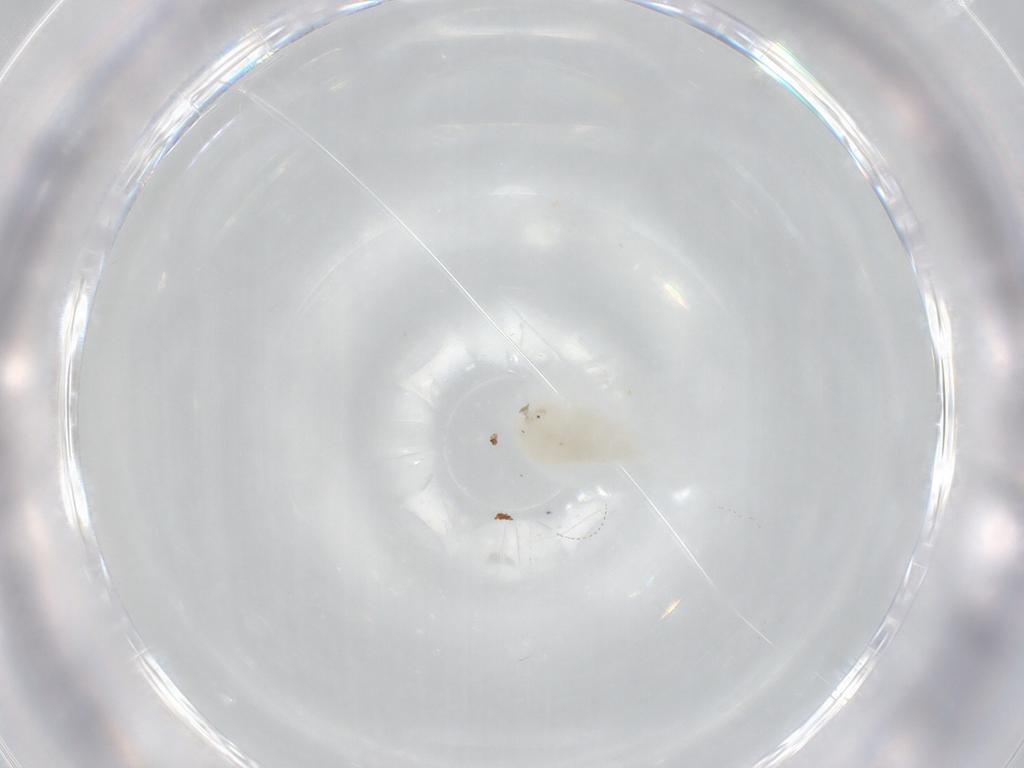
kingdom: Animalia
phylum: Arthropoda
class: Copepoda
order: Cyclopoida
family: Cyclopidae
